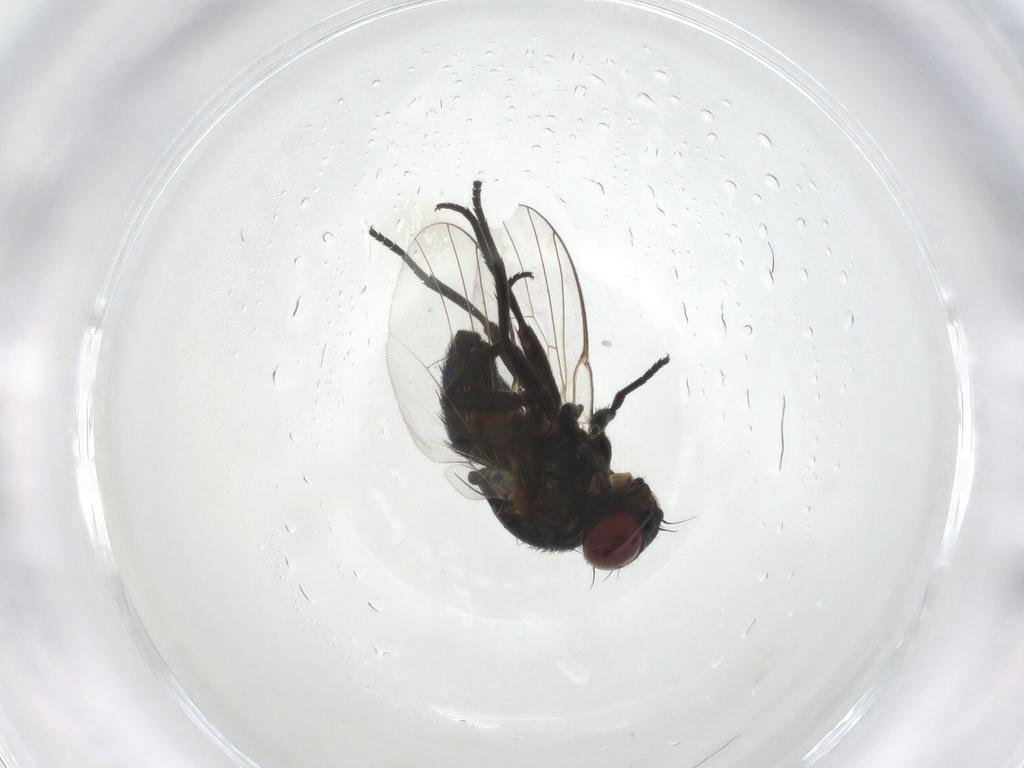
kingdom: Animalia
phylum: Arthropoda
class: Insecta
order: Diptera
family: Agromyzidae
